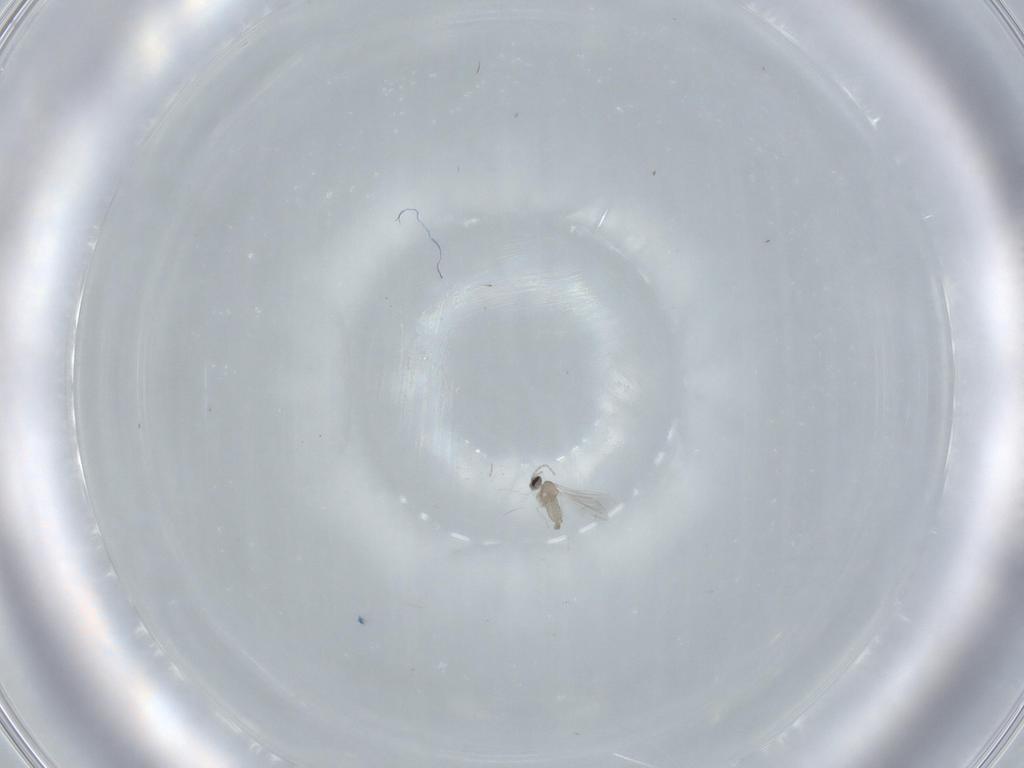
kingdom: Animalia
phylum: Arthropoda
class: Insecta
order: Diptera
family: Cecidomyiidae
